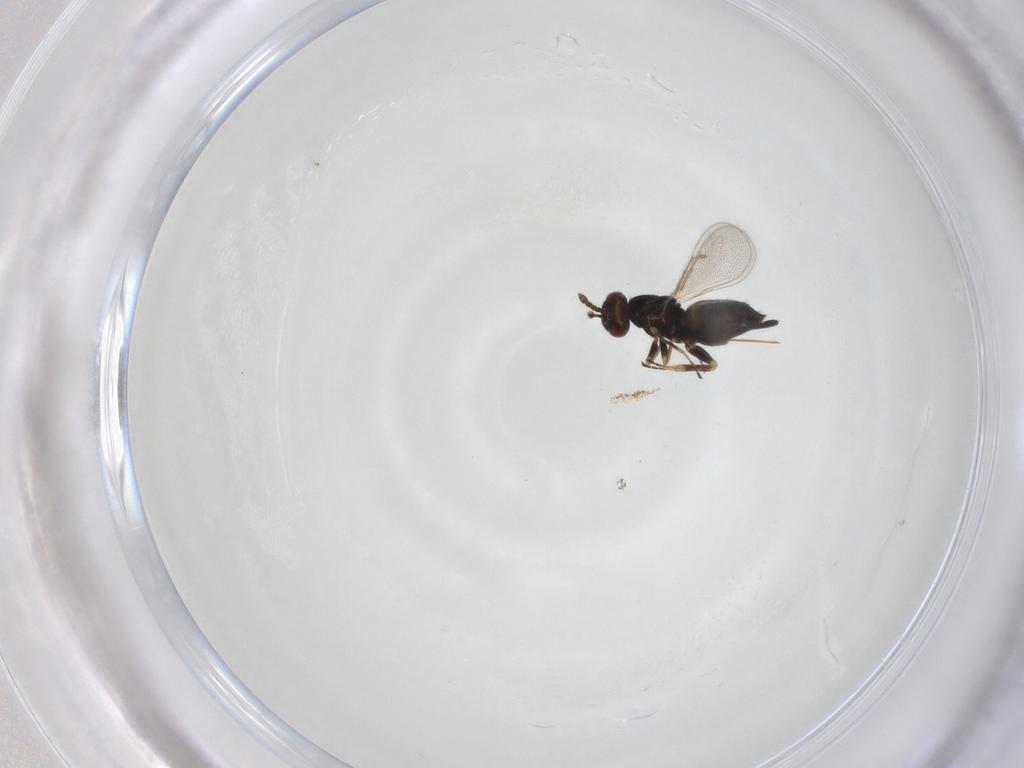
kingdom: Animalia
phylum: Arthropoda
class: Insecta
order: Hymenoptera
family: Eulophidae
